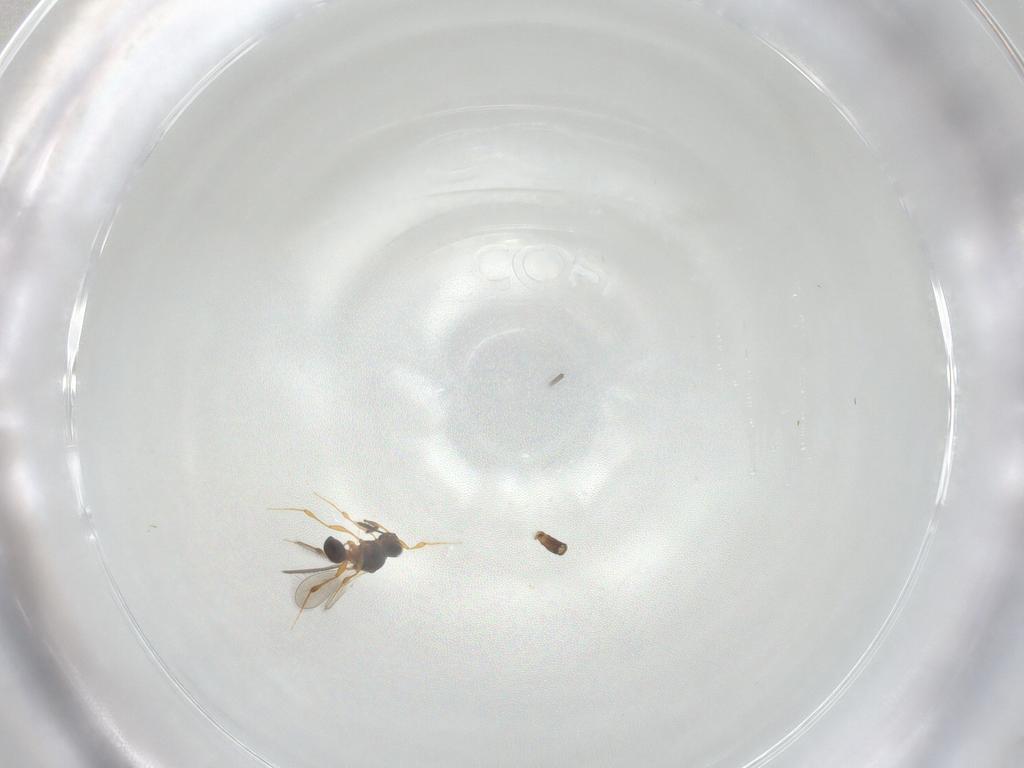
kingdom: Animalia
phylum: Arthropoda
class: Insecta
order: Hymenoptera
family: Platygastridae
